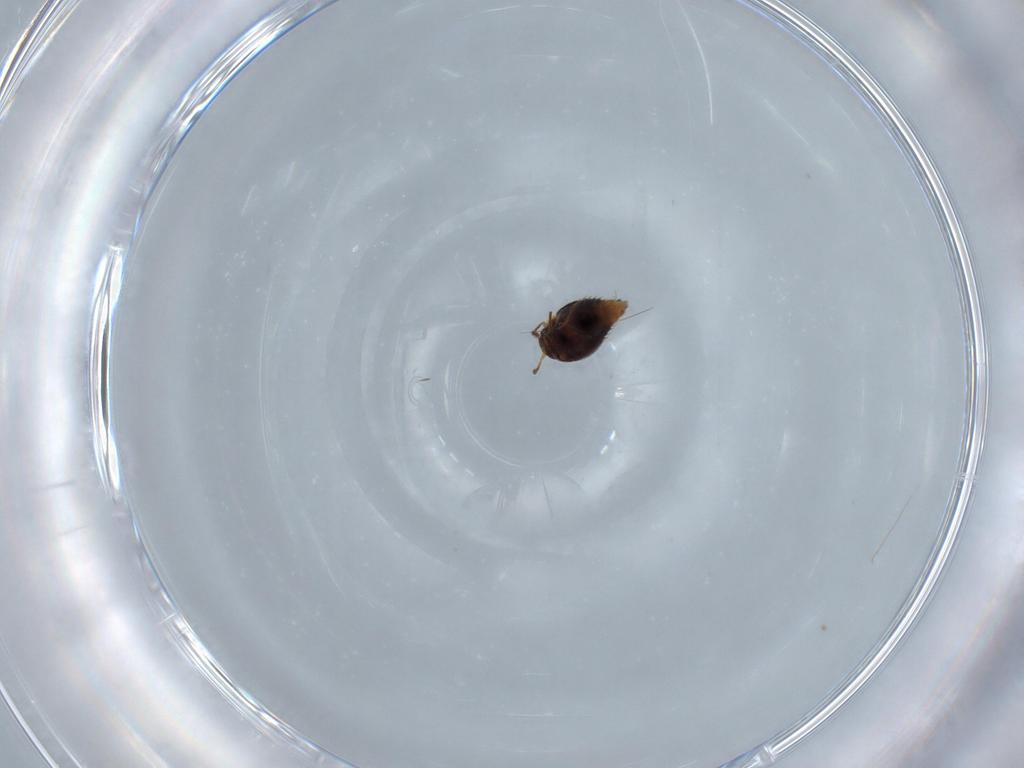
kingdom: Animalia
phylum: Arthropoda
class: Insecta
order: Coleoptera
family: Staphylinidae
